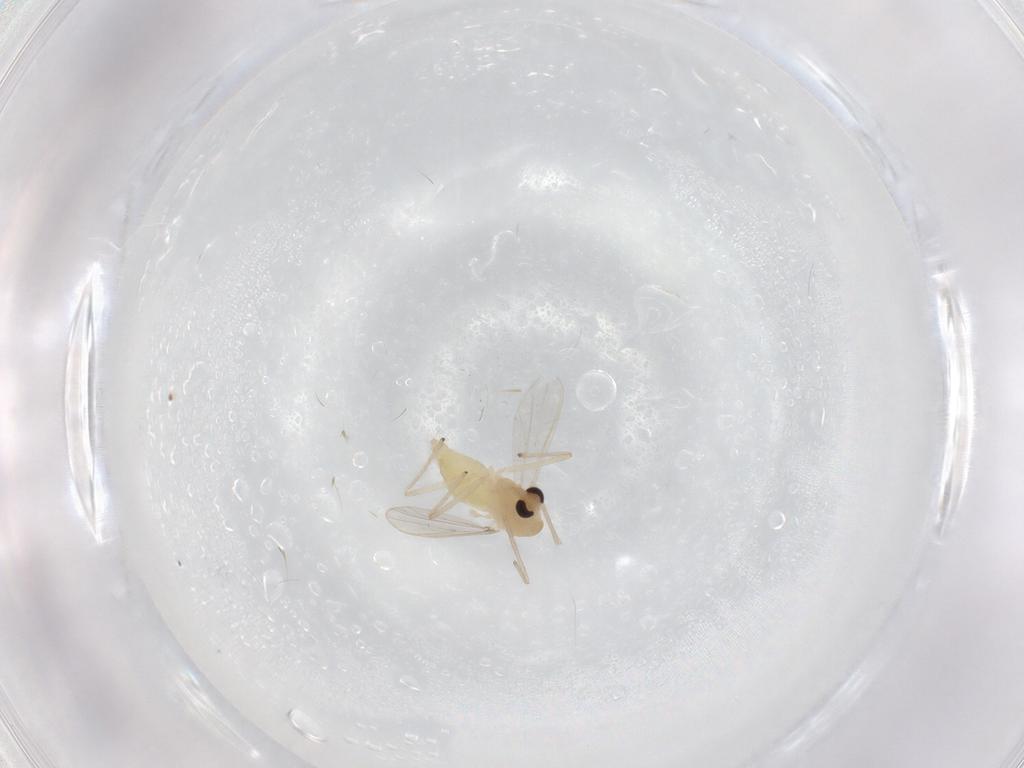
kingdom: Animalia
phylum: Arthropoda
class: Insecta
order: Diptera
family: Chironomidae
